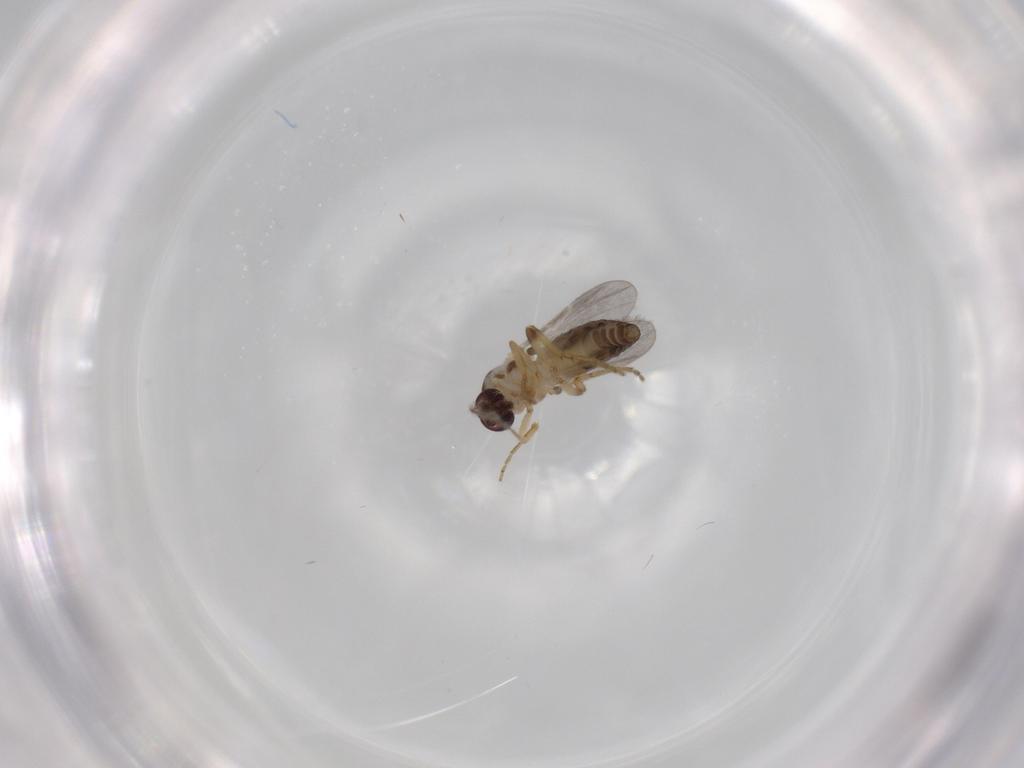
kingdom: Animalia
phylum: Arthropoda
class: Insecta
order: Diptera
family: Ceratopogonidae
